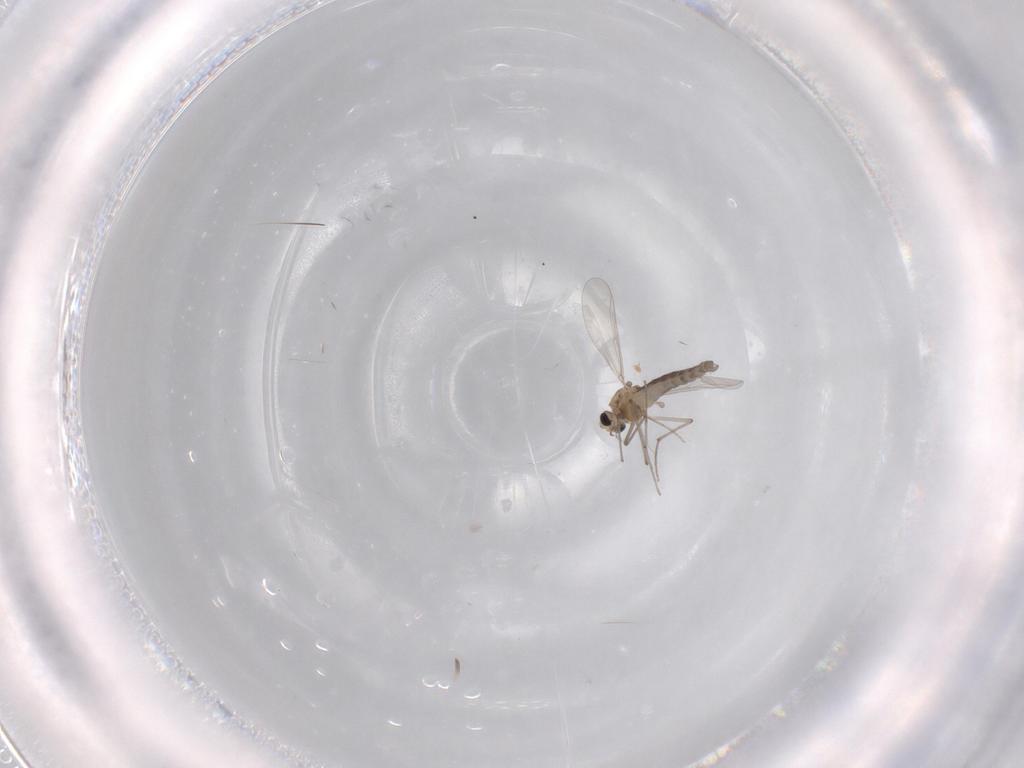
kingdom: Animalia
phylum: Arthropoda
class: Insecta
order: Diptera
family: Chironomidae
